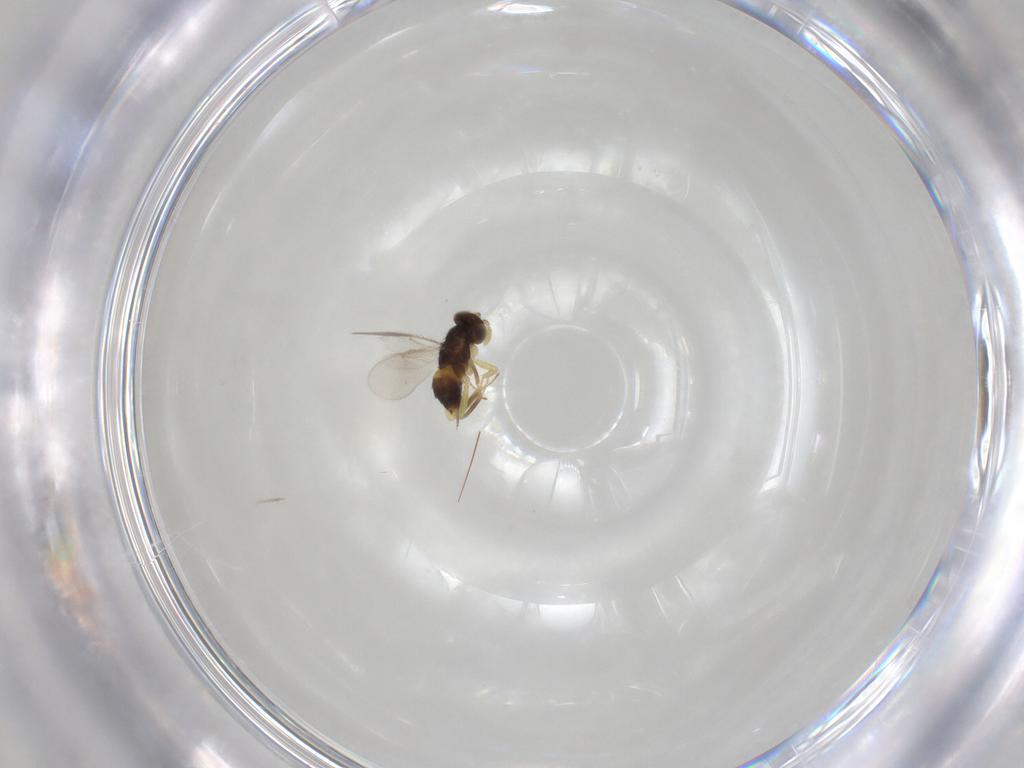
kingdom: Animalia
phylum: Arthropoda
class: Insecta
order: Hymenoptera
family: Aphelinidae
